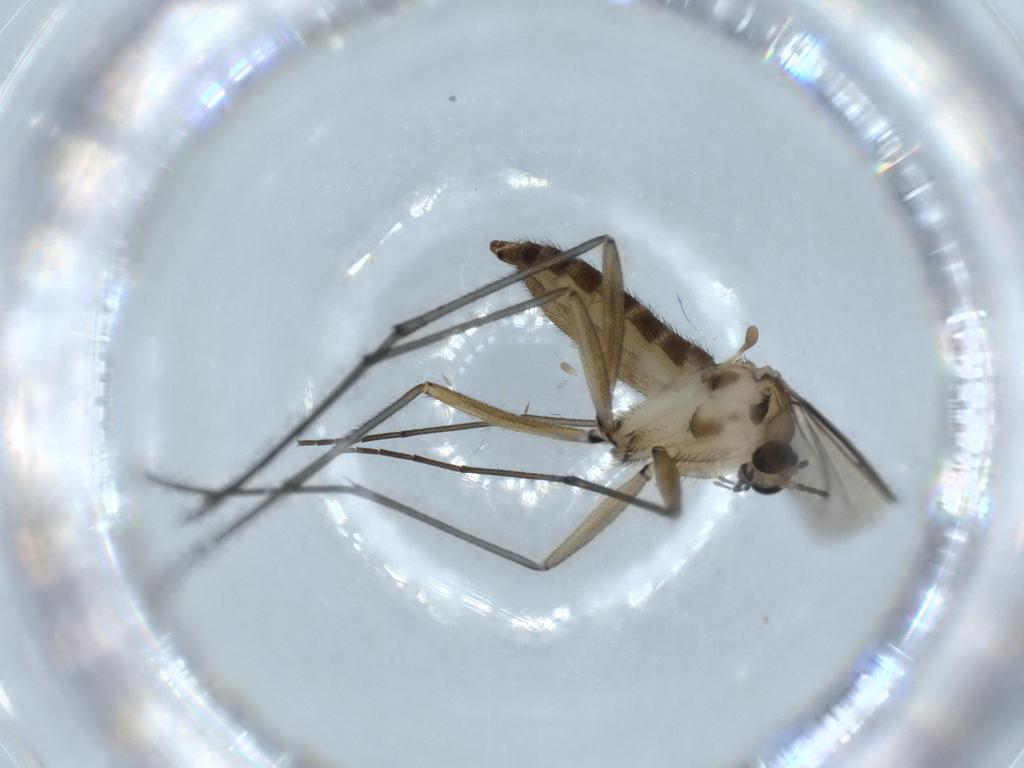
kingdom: Animalia
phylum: Arthropoda
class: Insecta
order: Diptera
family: Sciaridae
